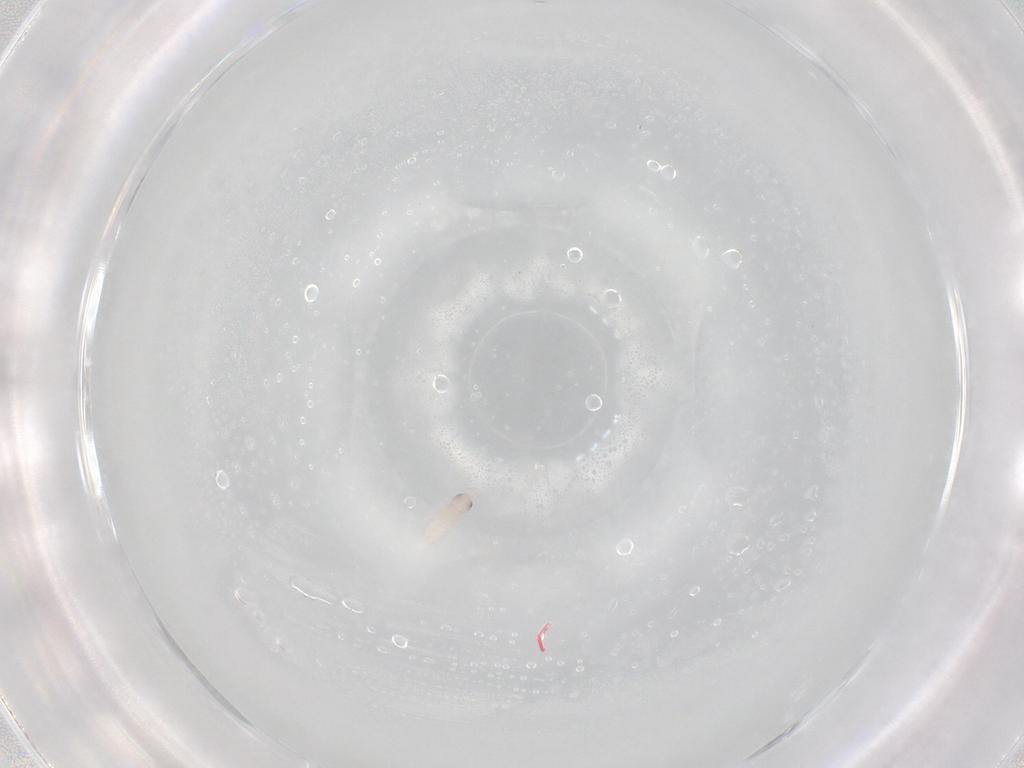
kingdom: Animalia
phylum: Arthropoda
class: Collembola
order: Entomobryomorpha
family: Tomoceridae
